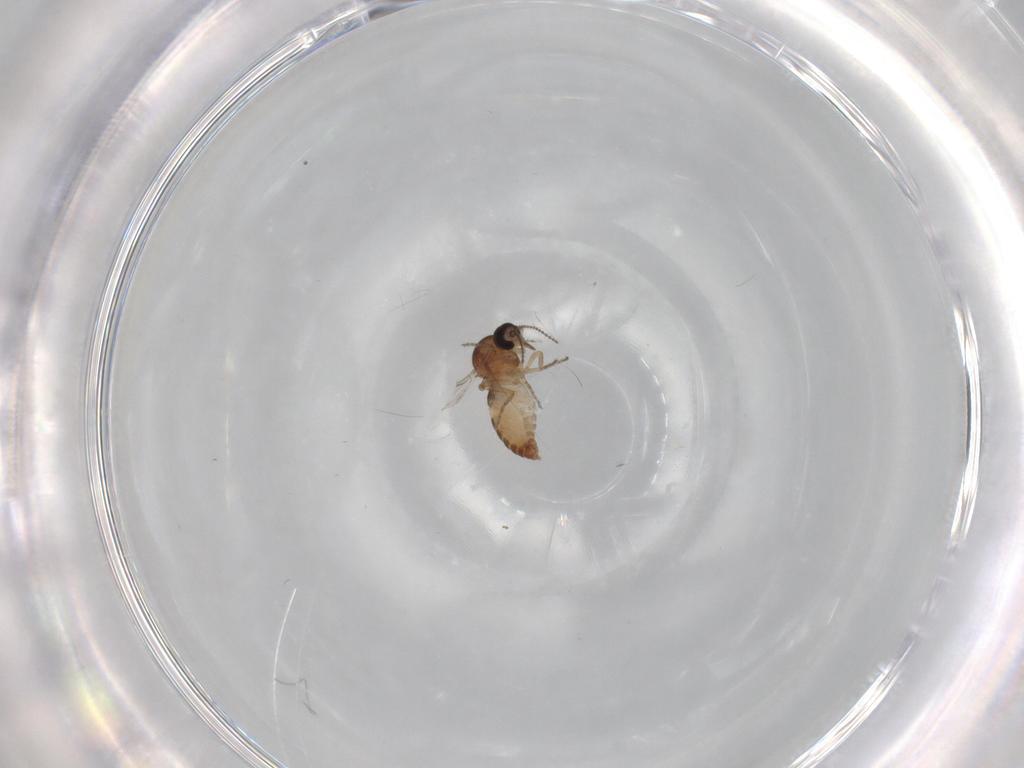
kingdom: Animalia
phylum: Arthropoda
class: Insecta
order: Diptera
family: Ceratopogonidae
